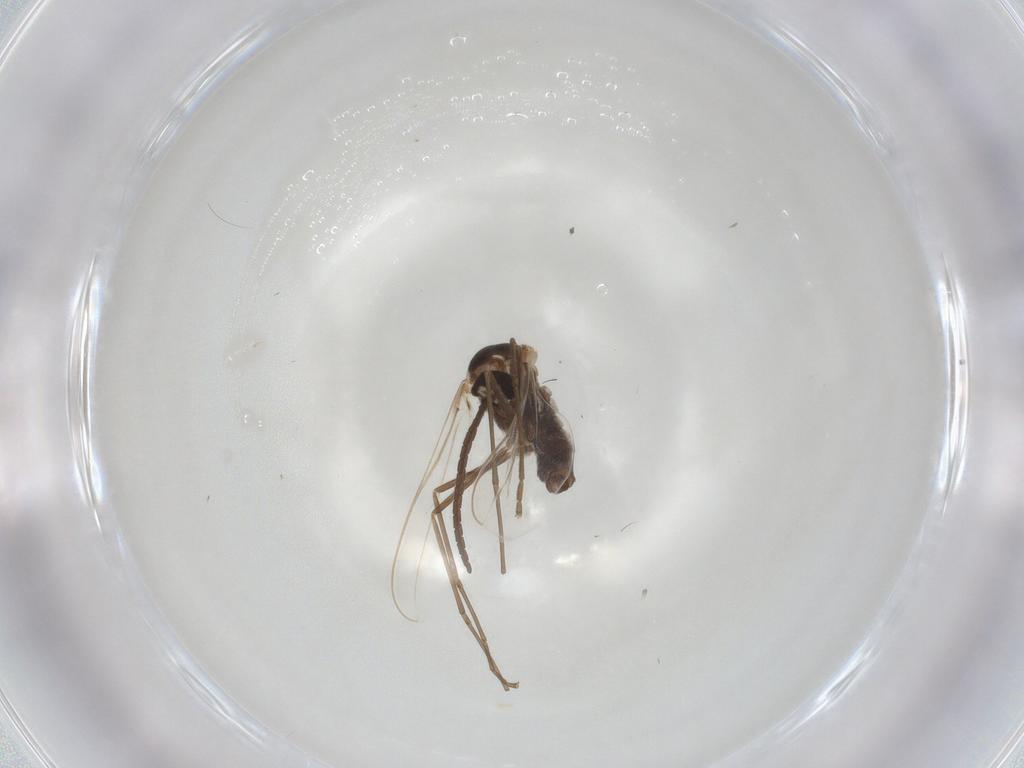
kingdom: Animalia
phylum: Arthropoda
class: Insecta
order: Diptera
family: Cecidomyiidae
